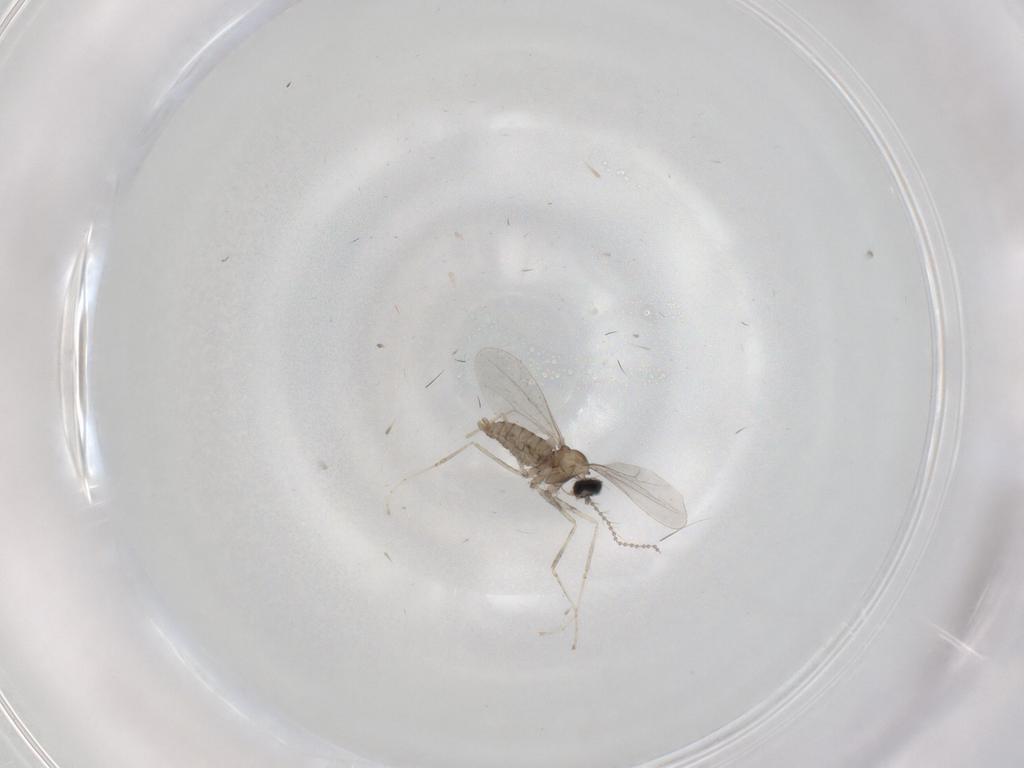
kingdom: Animalia
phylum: Arthropoda
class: Insecta
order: Diptera
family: Cecidomyiidae
